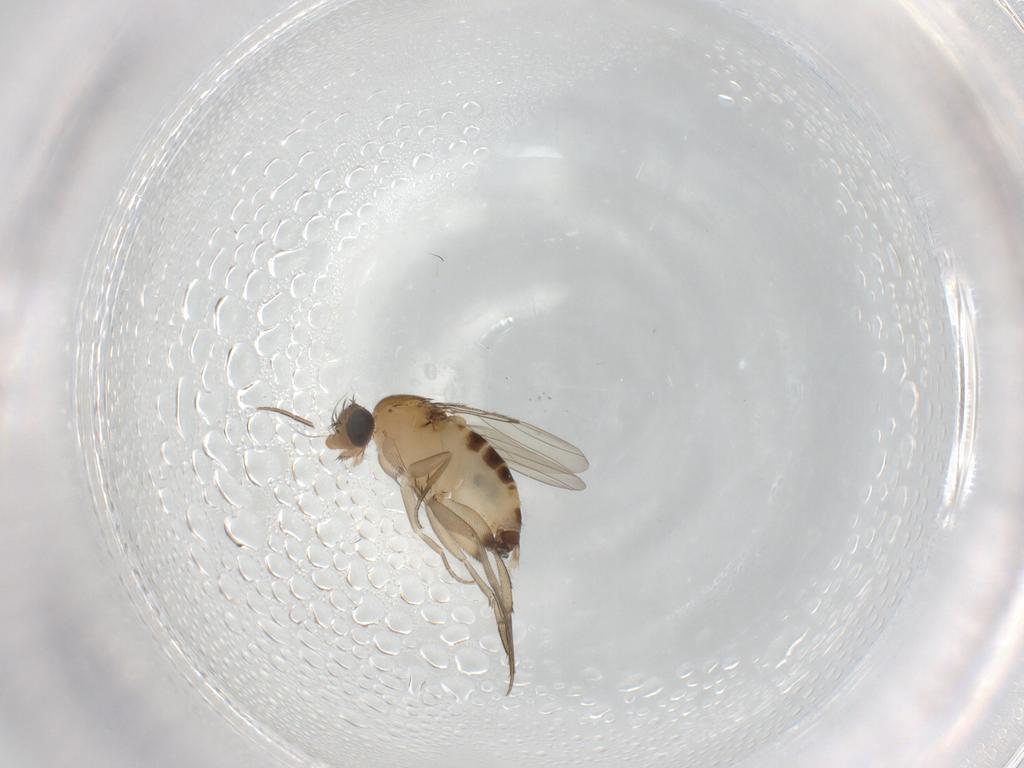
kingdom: Animalia
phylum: Arthropoda
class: Insecta
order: Diptera
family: Phoridae
